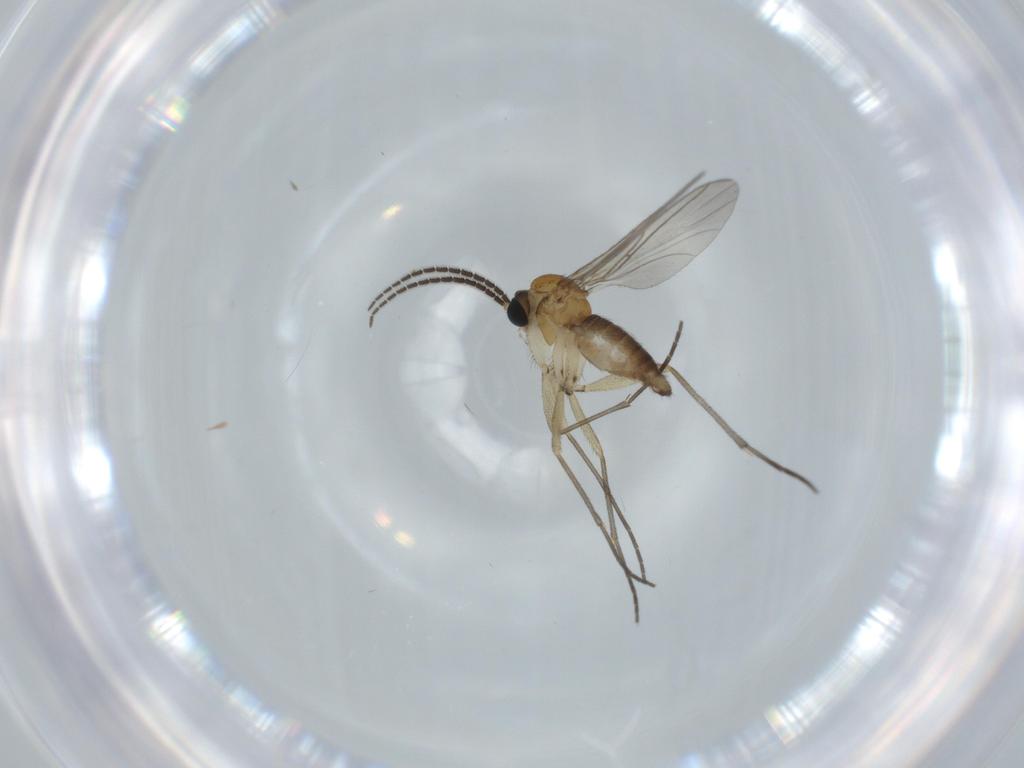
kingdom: Animalia
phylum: Arthropoda
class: Insecta
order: Diptera
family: Sciaridae
